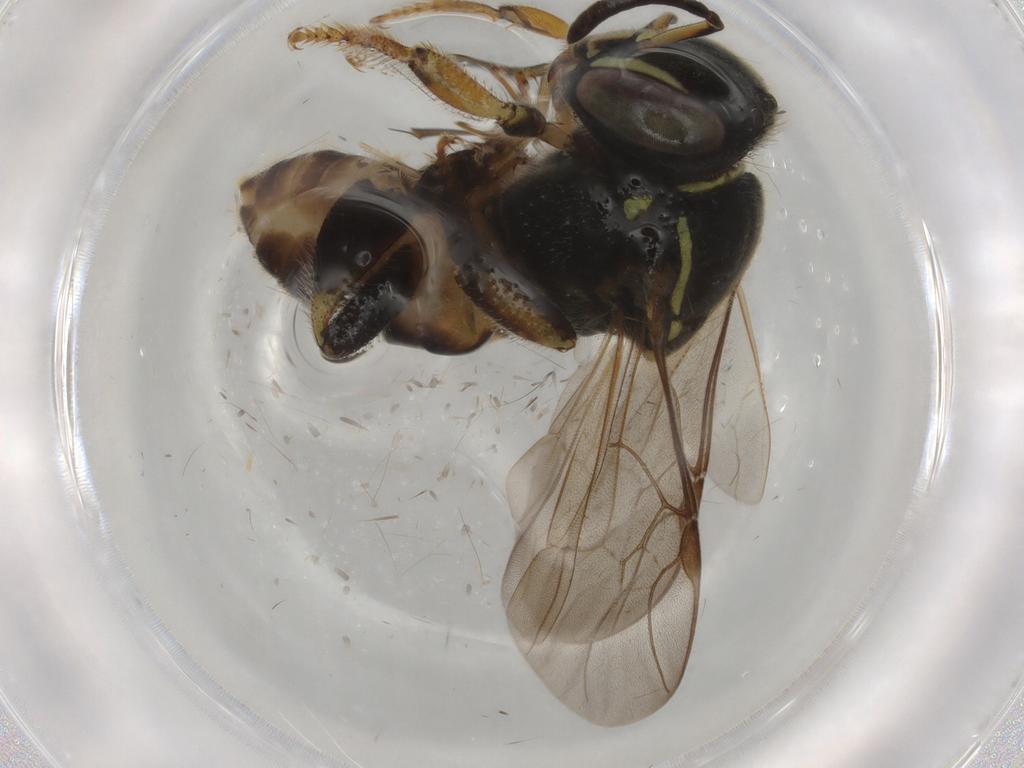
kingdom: Animalia
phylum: Arthropoda
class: Insecta
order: Hymenoptera
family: Apidae
